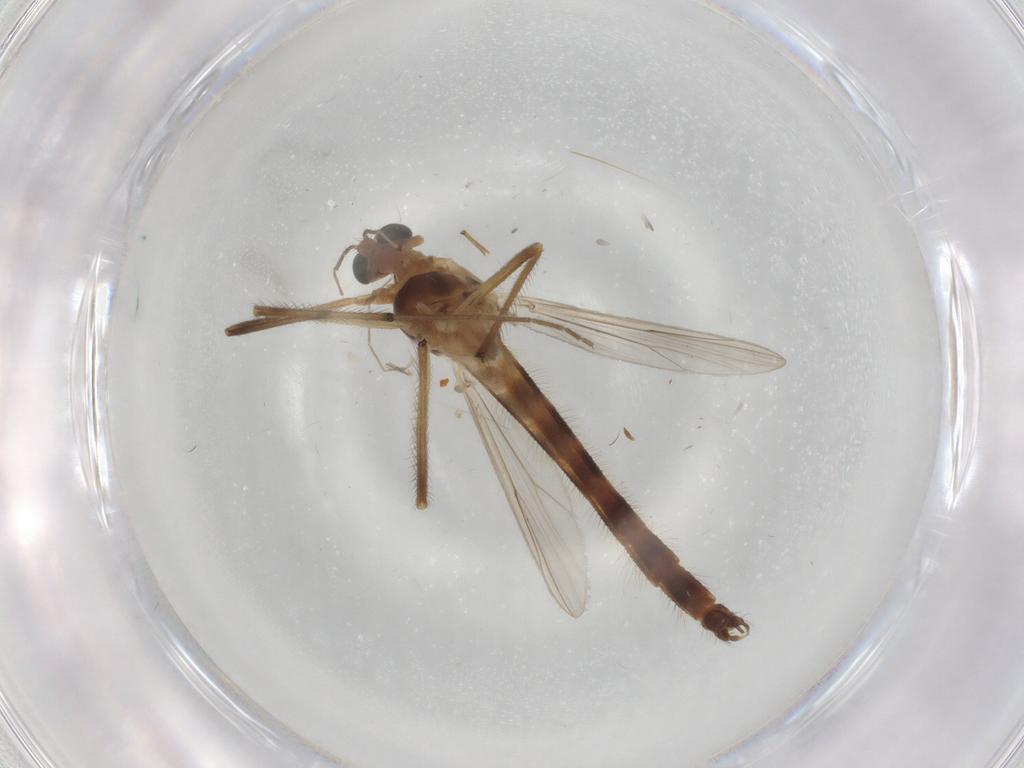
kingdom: Animalia
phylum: Arthropoda
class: Insecta
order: Diptera
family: Chironomidae
